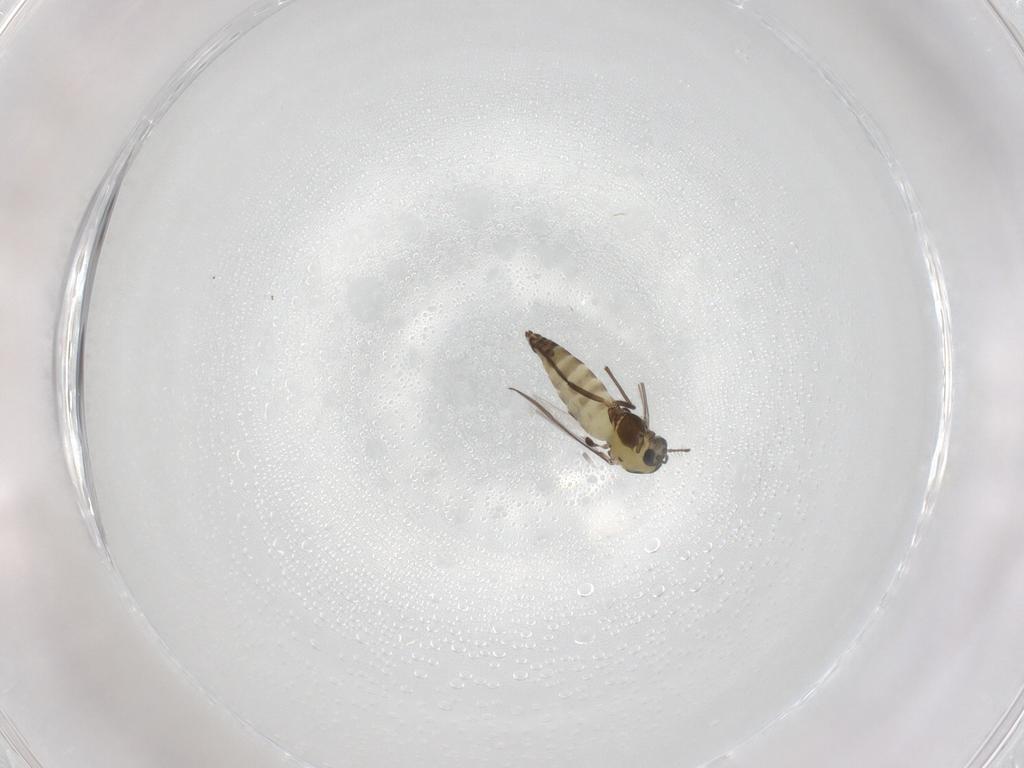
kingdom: Animalia
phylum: Arthropoda
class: Insecta
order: Diptera
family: Chironomidae
